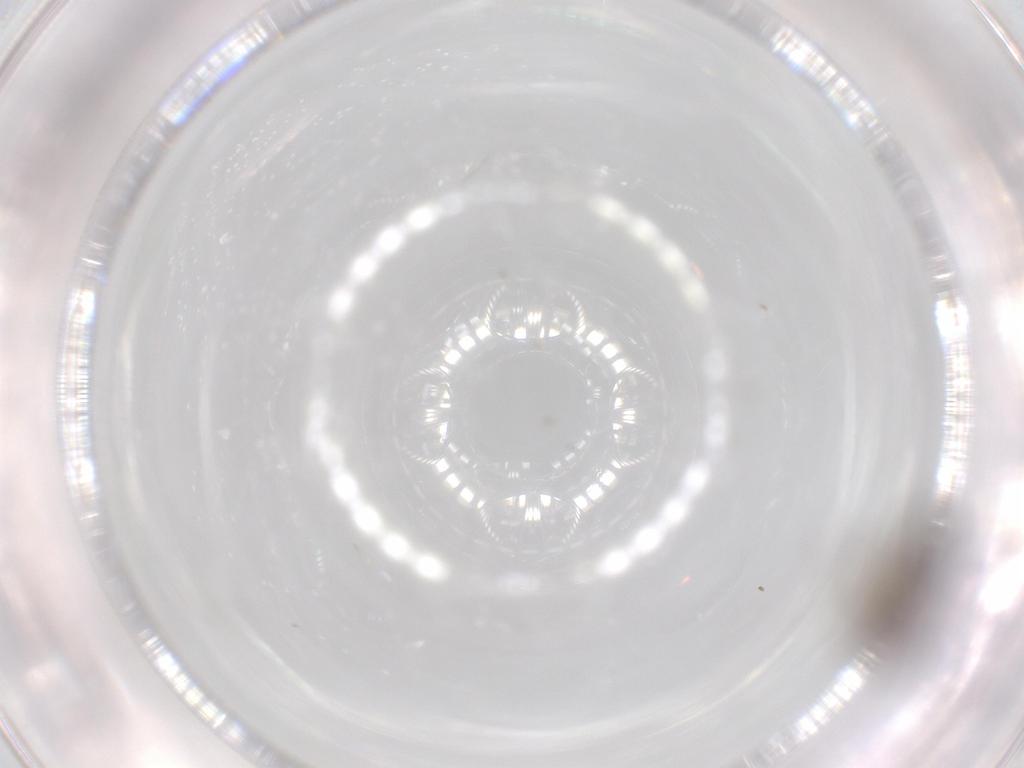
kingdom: Animalia
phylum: Arthropoda
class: Insecta
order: Diptera
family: Sciaridae
